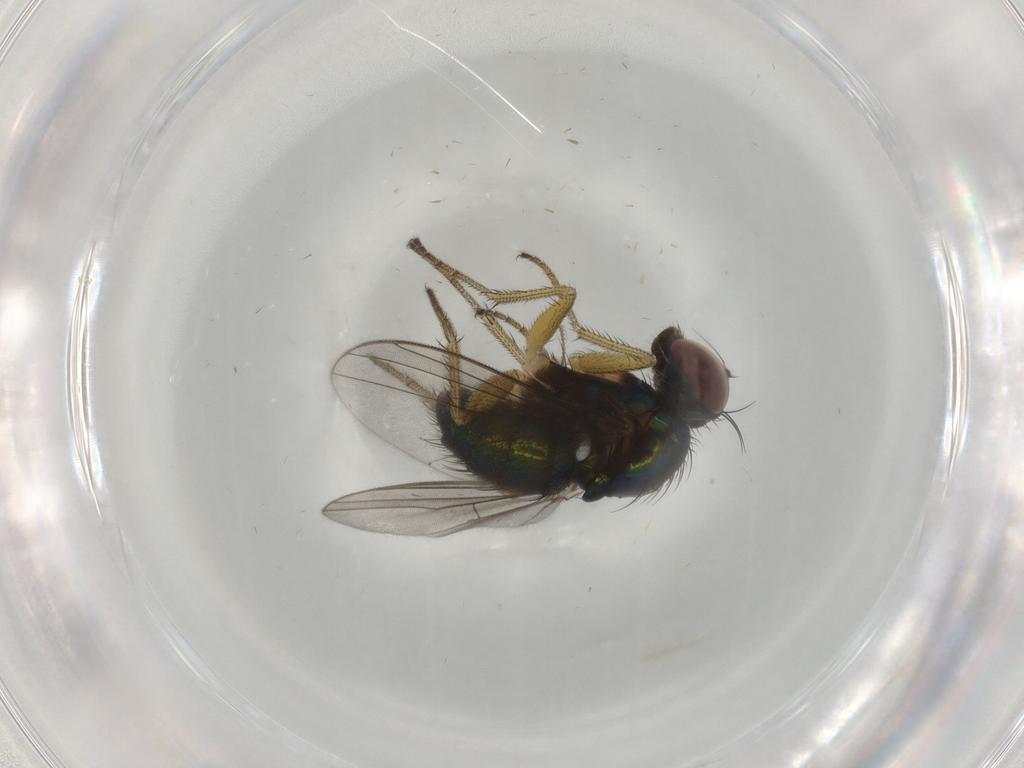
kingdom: Animalia
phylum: Arthropoda
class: Insecta
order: Diptera
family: Dolichopodidae
